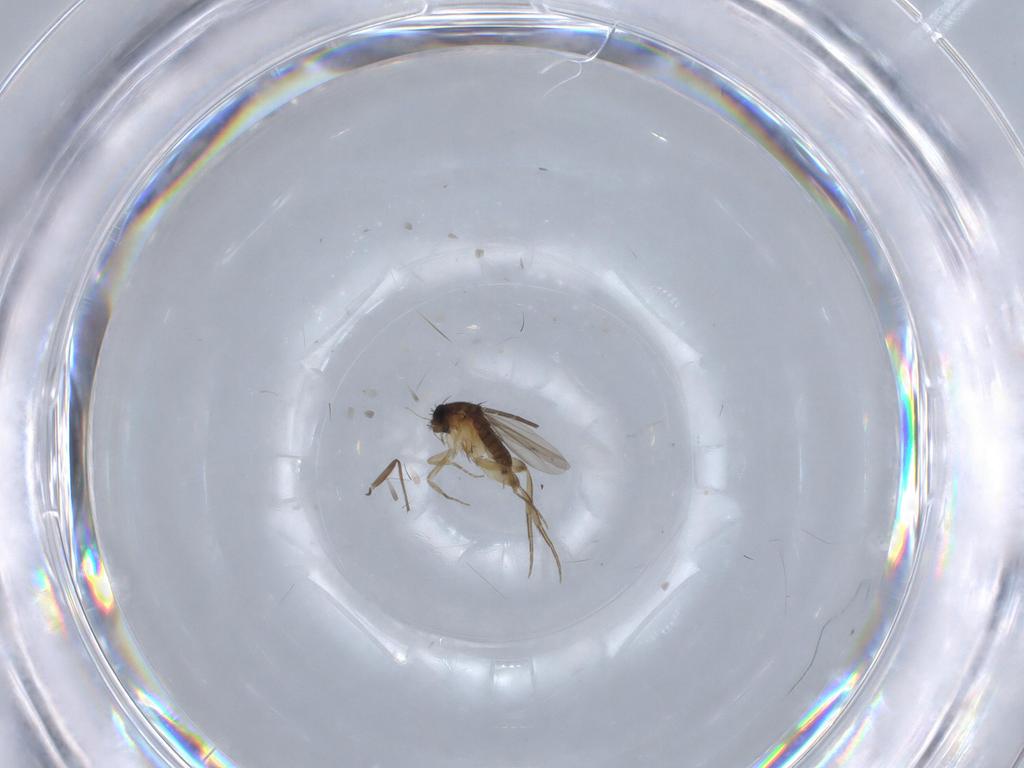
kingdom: Animalia
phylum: Arthropoda
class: Insecta
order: Diptera
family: Phoridae
